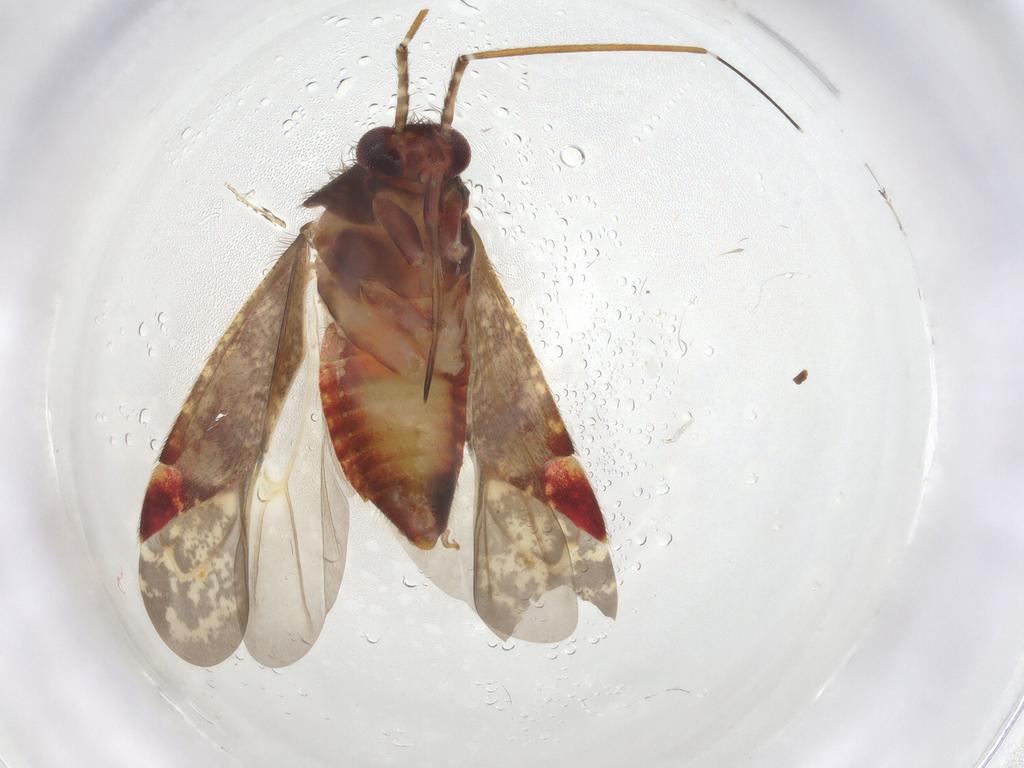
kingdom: Animalia
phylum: Arthropoda
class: Insecta
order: Hemiptera
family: Miridae
